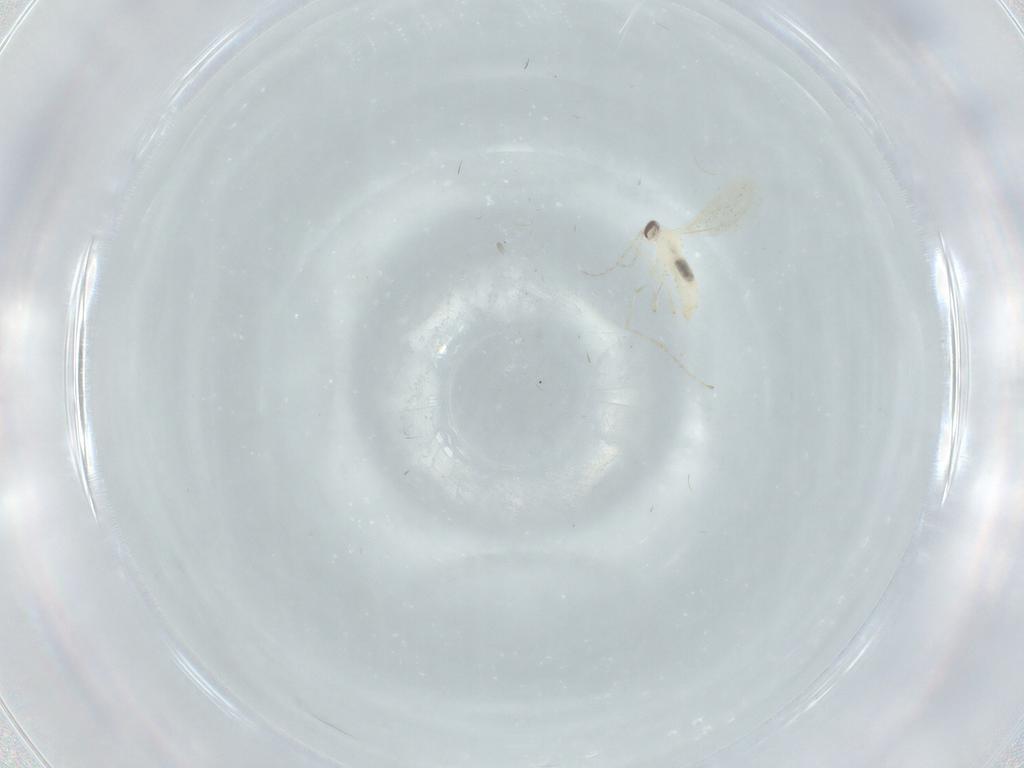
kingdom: Animalia
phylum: Arthropoda
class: Insecta
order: Diptera
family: Cecidomyiidae
